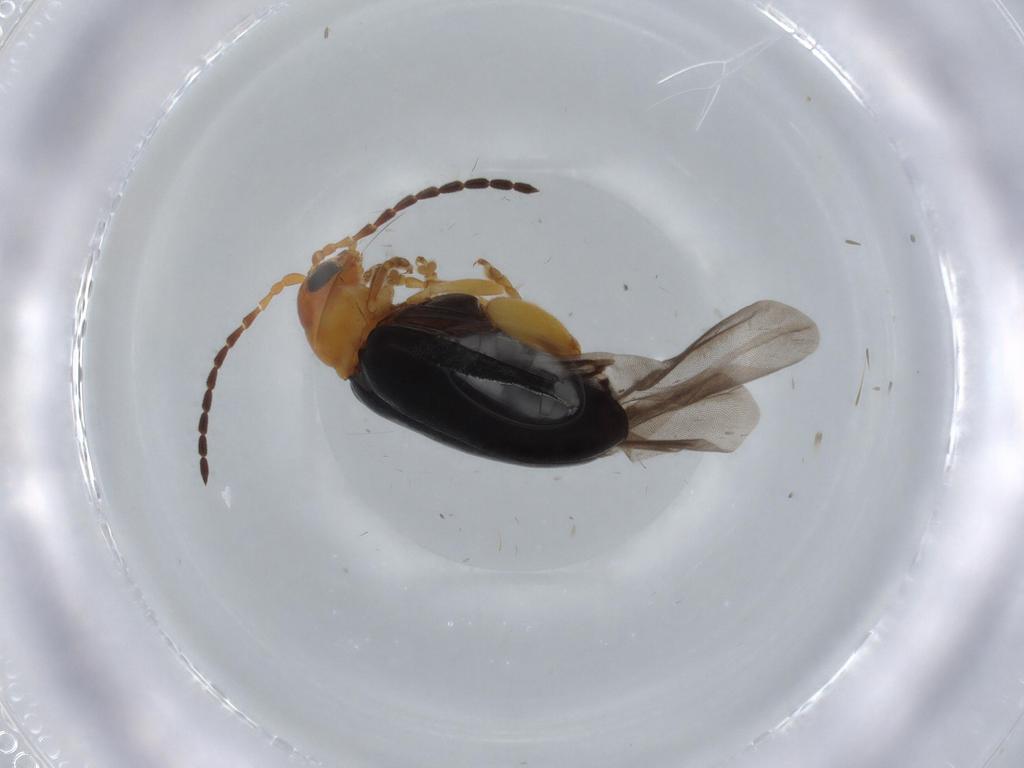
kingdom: Animalia
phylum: Arthropoda
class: Insecta
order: Coleoptera
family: Chrysomelidae
